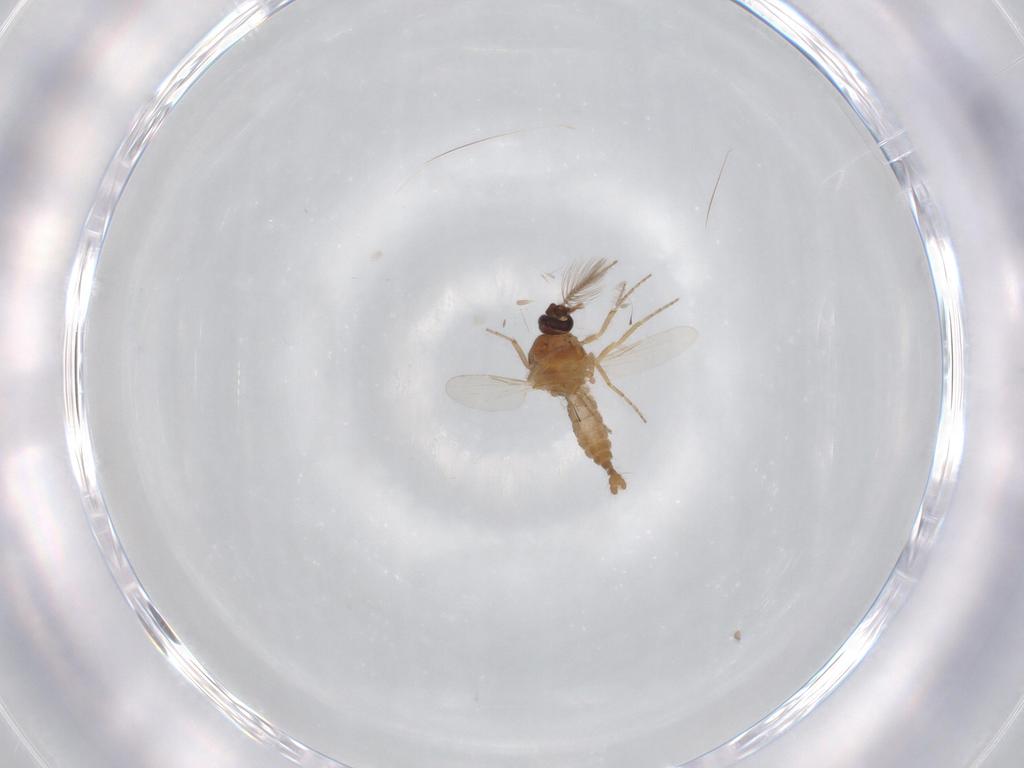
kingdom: Animalia
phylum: Arthropoda
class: Insecta
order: Diptera
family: Ceratopogonidae
